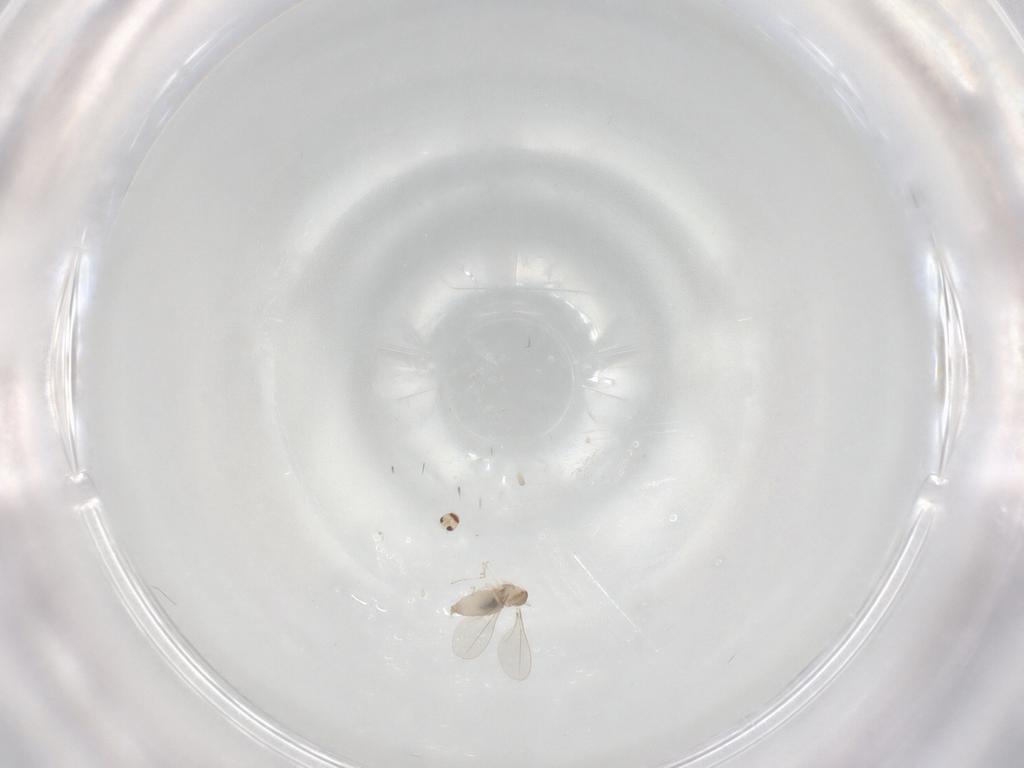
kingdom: Animalia
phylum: Arthropoda
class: Insecta
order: Diptera
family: Cecidomyiidae
